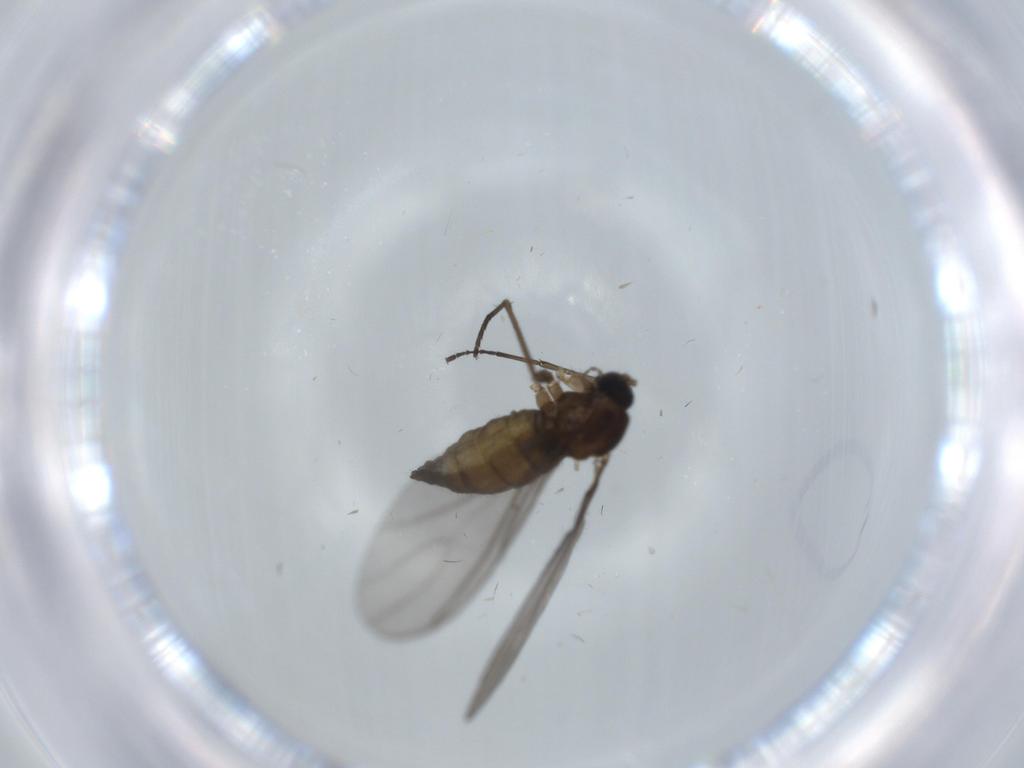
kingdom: Animalia
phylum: Arthropoda
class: Insecta
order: Diptera
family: Sciaridae
